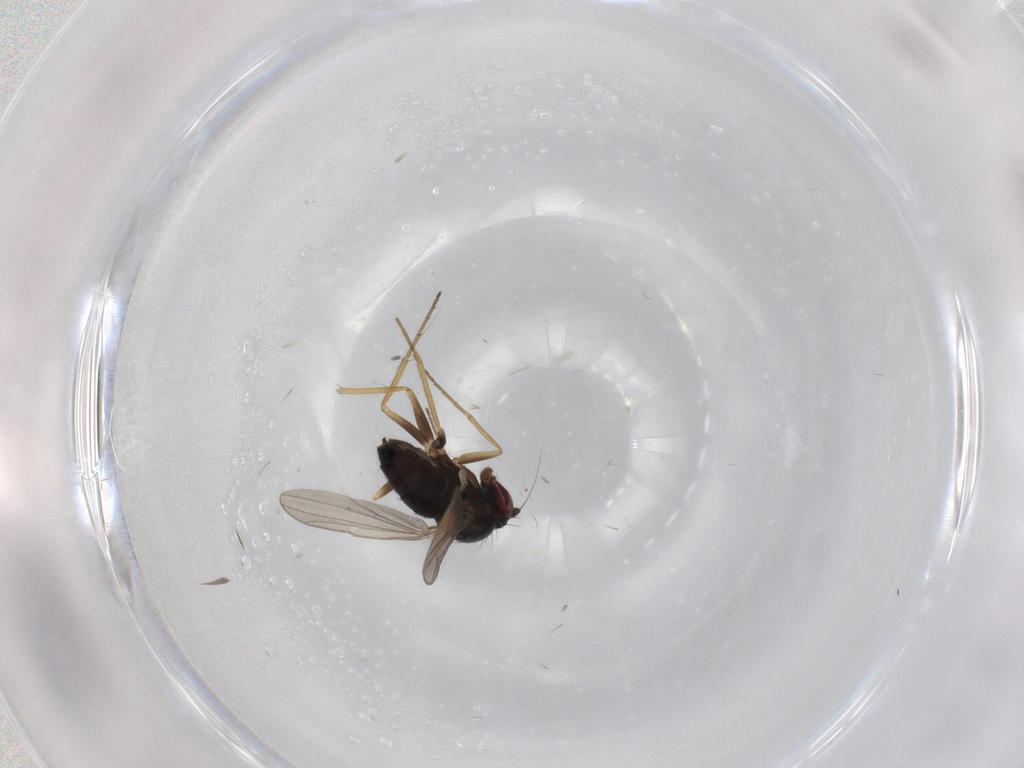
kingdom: Animalia
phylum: Arthropoda
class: Insecta
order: Diptera
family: Dolichopodidae
